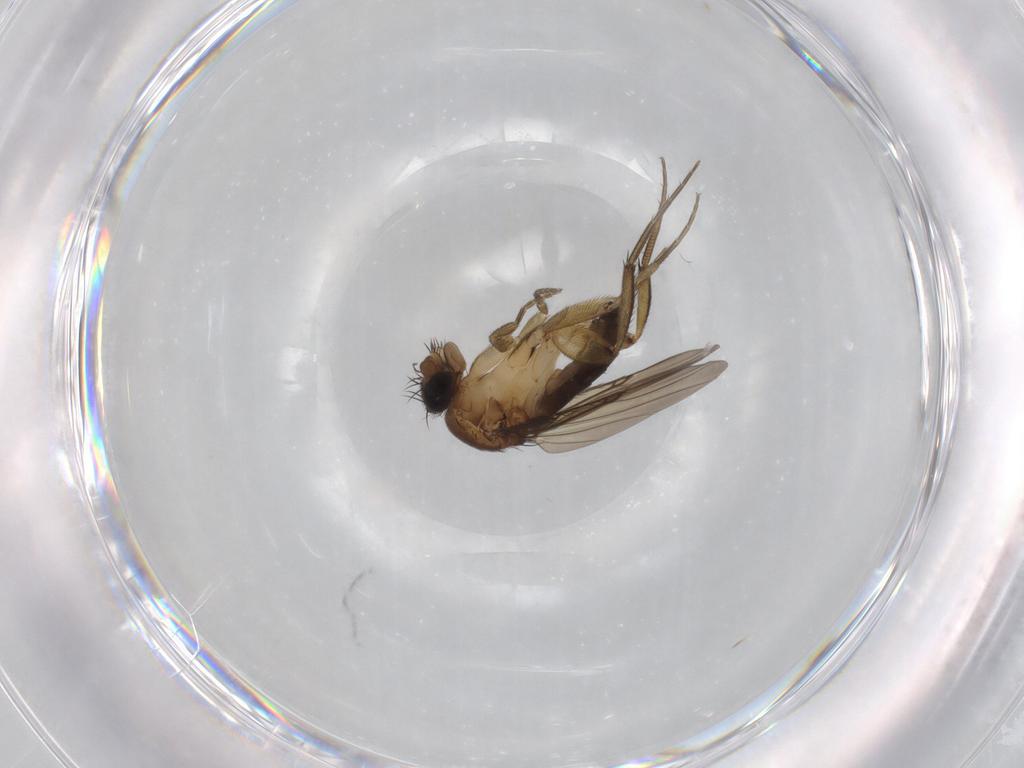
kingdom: Animalia
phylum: Arthropoda
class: Insecta
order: Diptera
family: Phoridae
